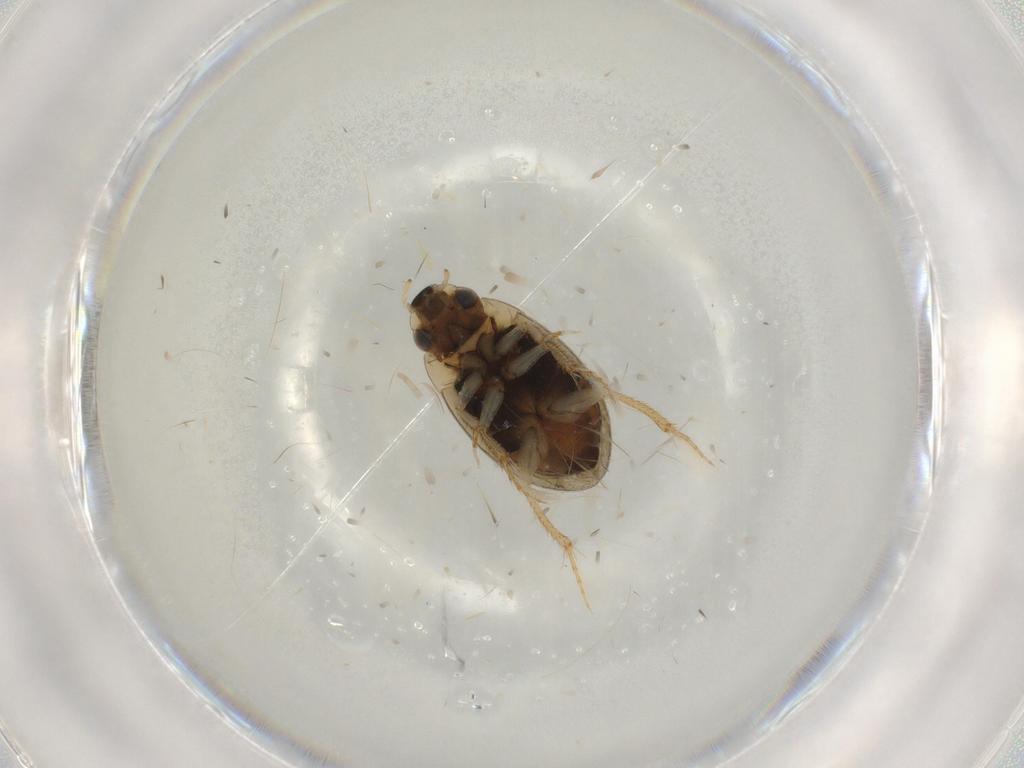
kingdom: Animalia
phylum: Arthropoda
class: Insecta
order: Coleoptera
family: Hydrophilidae
